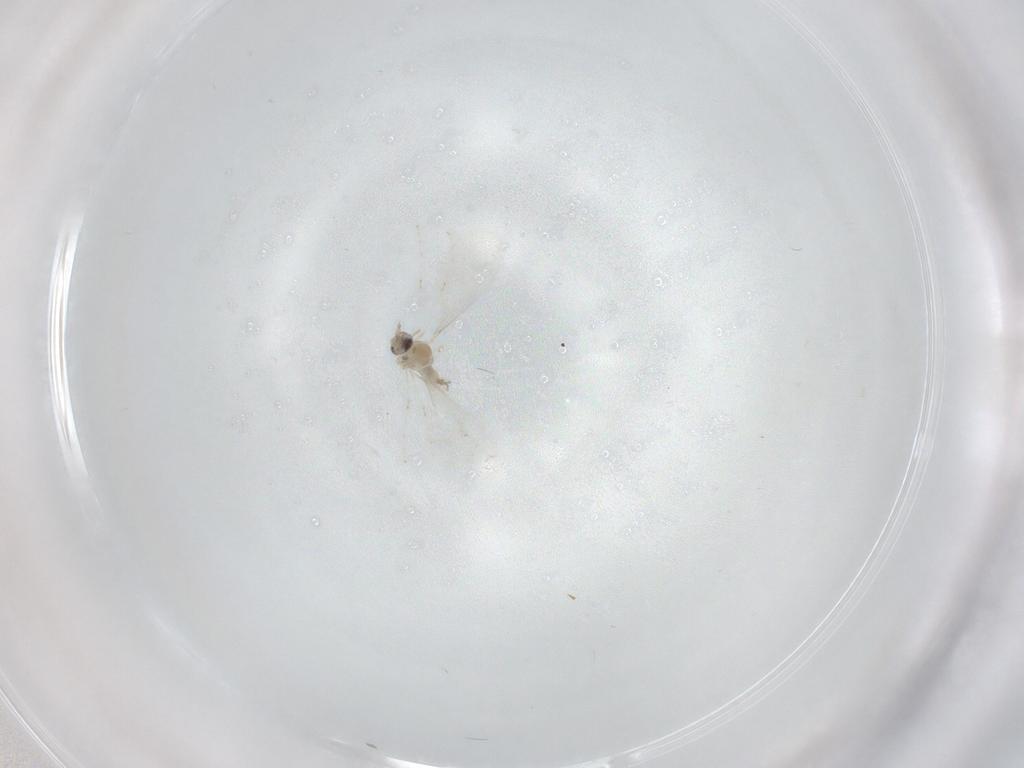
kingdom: Animalia
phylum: Arthropoda
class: Insecta
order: Diptera
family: Cecidomyiidae
